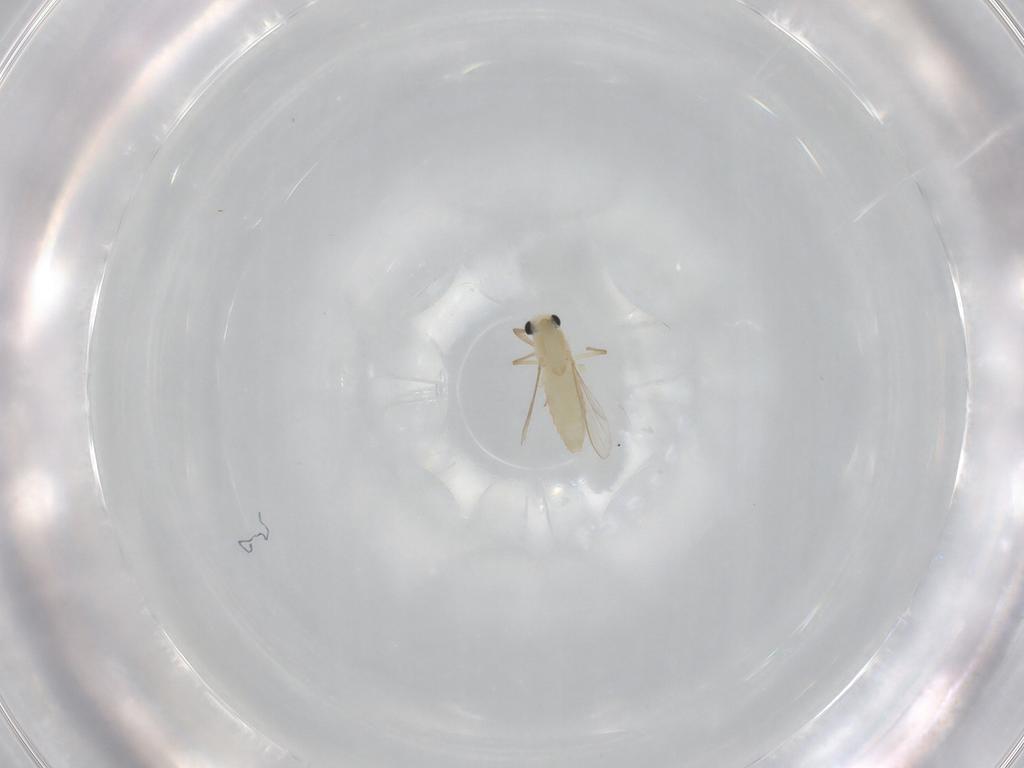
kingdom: Animalia
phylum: Arthropoda
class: Insecta
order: Diptera
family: Chironomidae
